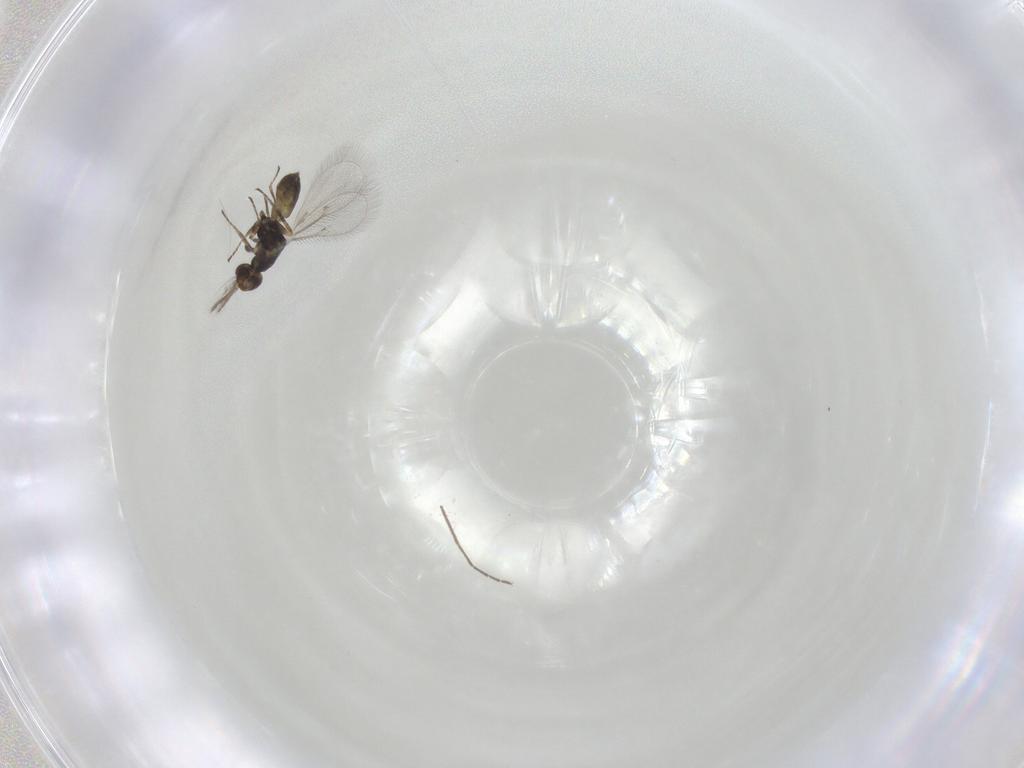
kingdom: Animalia
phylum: Arthropoda
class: Insecta
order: Hymenoptera
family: Eulophidae
